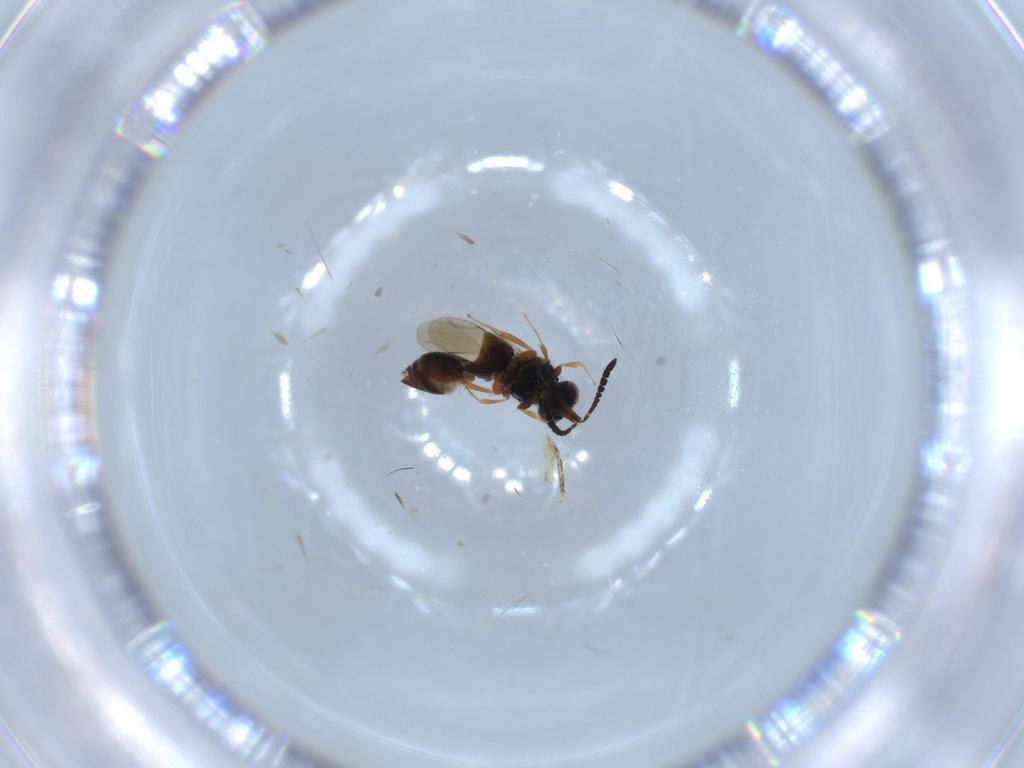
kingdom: Animalia
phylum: Arthropoda
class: Insecta
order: Hymenoptera
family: Ceraphronidae
